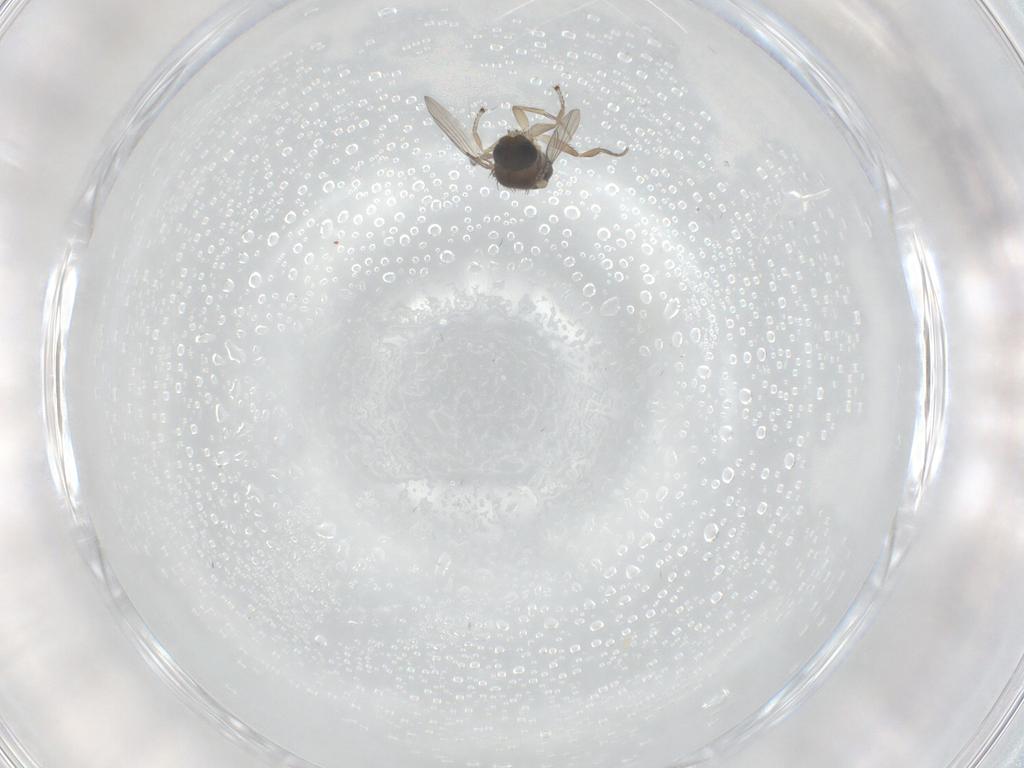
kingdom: Animalia
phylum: Arthropoda
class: Insecta
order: Diptera
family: Phoridae
